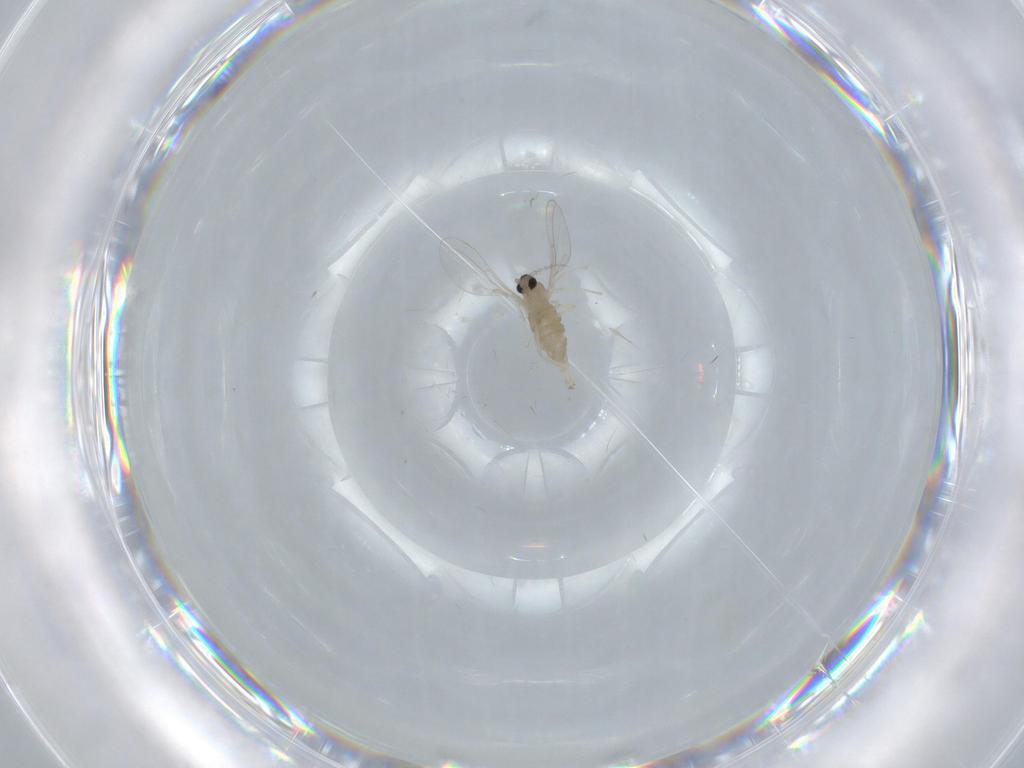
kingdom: Animalia
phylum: Arthropoda
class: Insecta
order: Diptera
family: Cecidomyiidae
